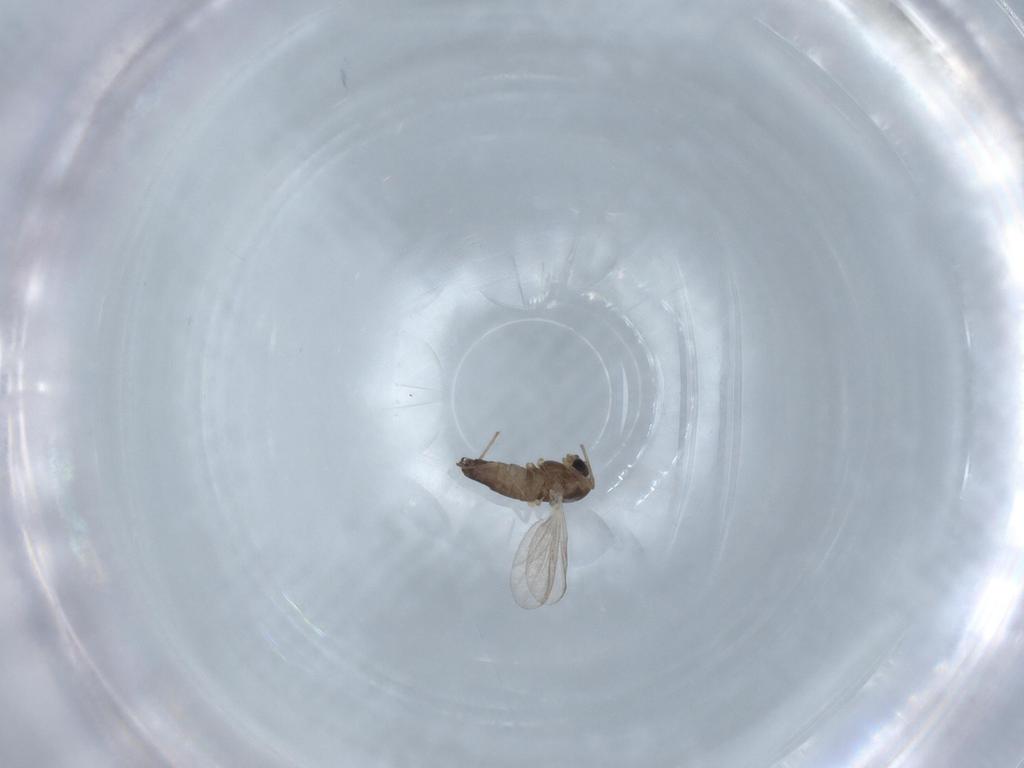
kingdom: Animalia
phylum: Arthropoda
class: Insecta
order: Diptera
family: Chironomidae
